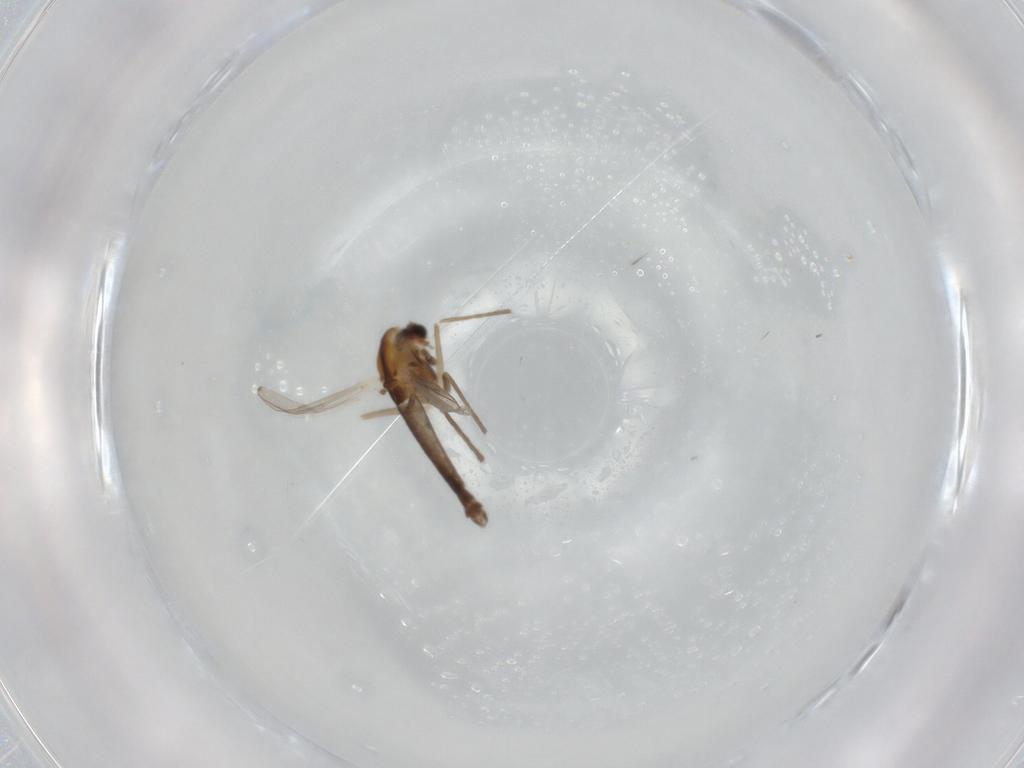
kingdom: Animalia
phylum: Arthropoda
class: Insecta
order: Diptera
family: Chironomidae
